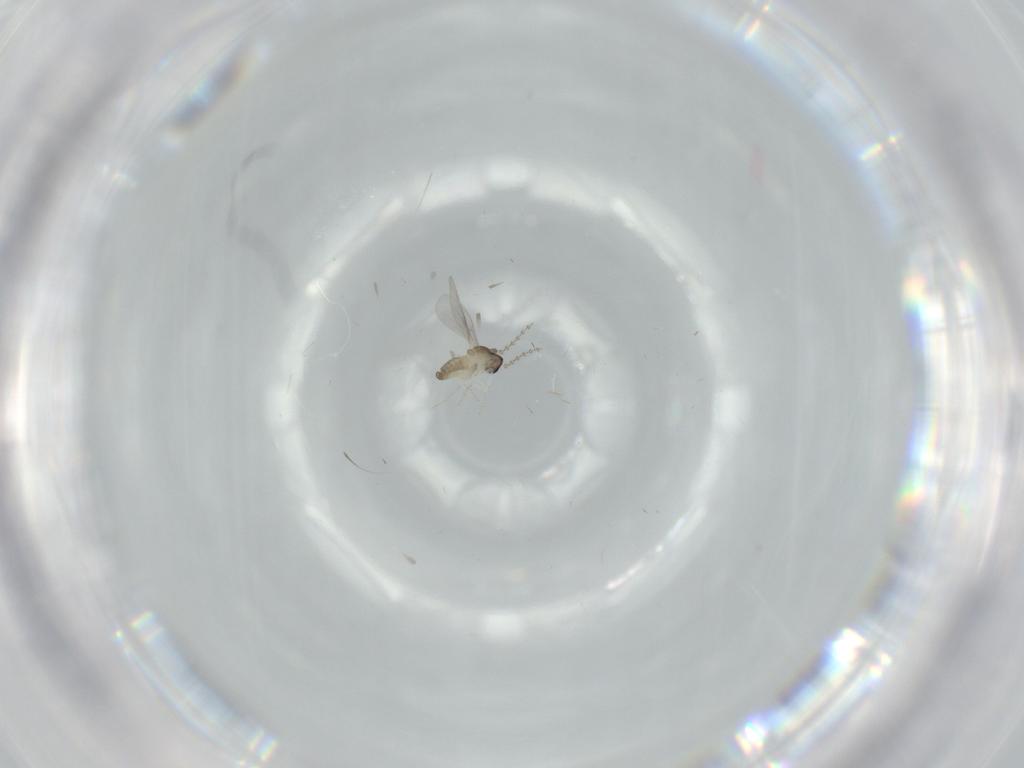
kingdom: Animalia
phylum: Arthropoda
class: Insecta
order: Diptera
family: Cecidomyiidae
